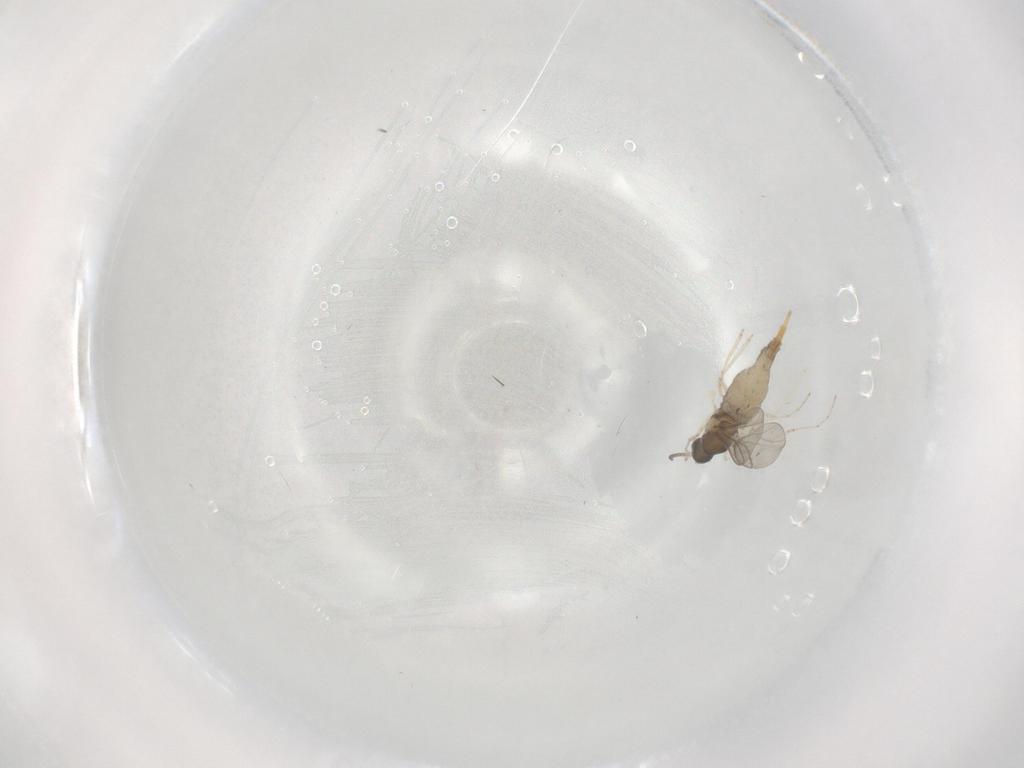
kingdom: Animalia
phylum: Arthropoda
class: Insecta
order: Diptera
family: Cecidomyiidae
